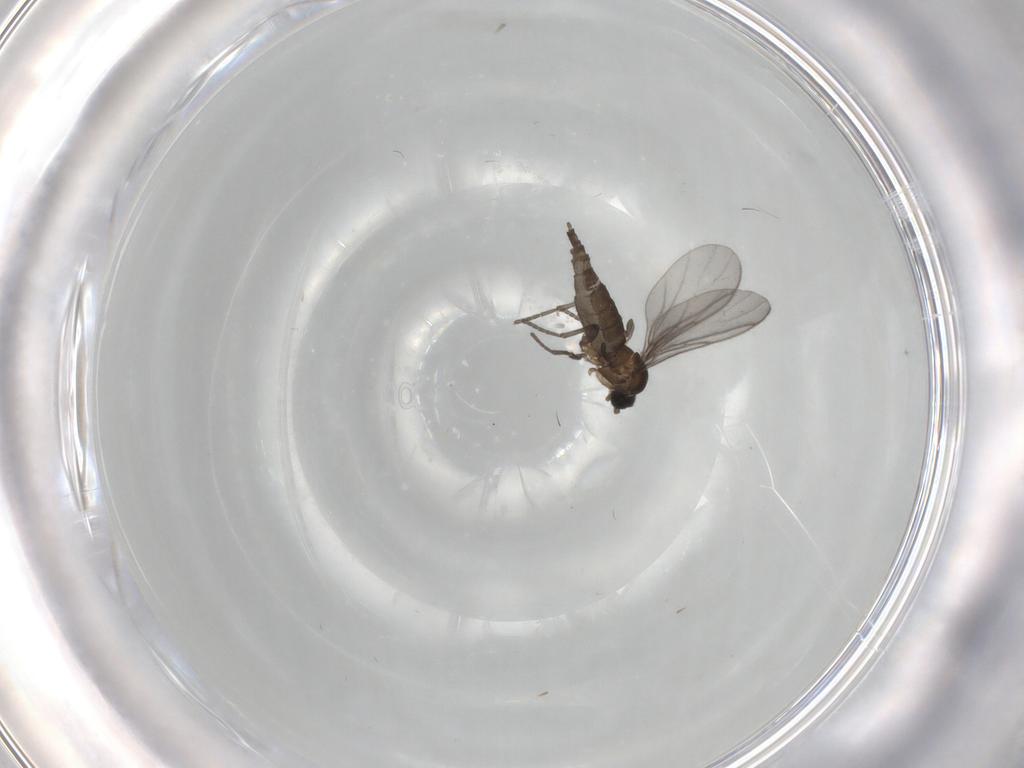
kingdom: Animalia
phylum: Arthropoda
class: Insecta
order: Diptera
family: Sciaridae
